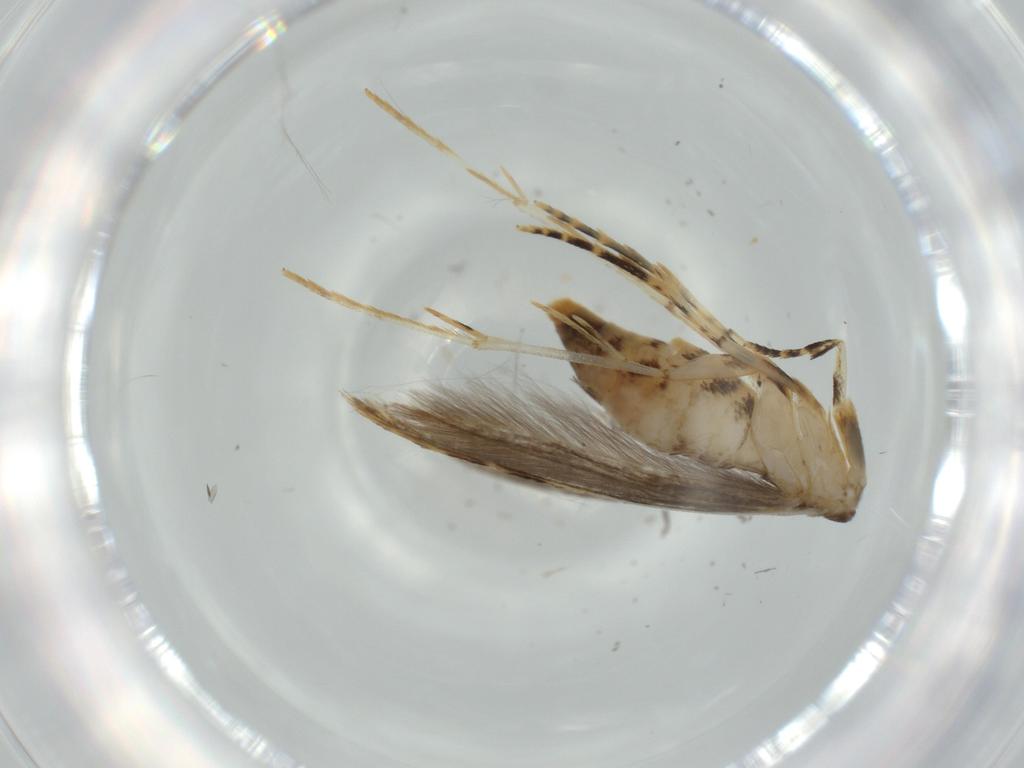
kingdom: Animalia
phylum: Arthropoda
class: Insecta
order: Lepidoptera
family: Tineidae
